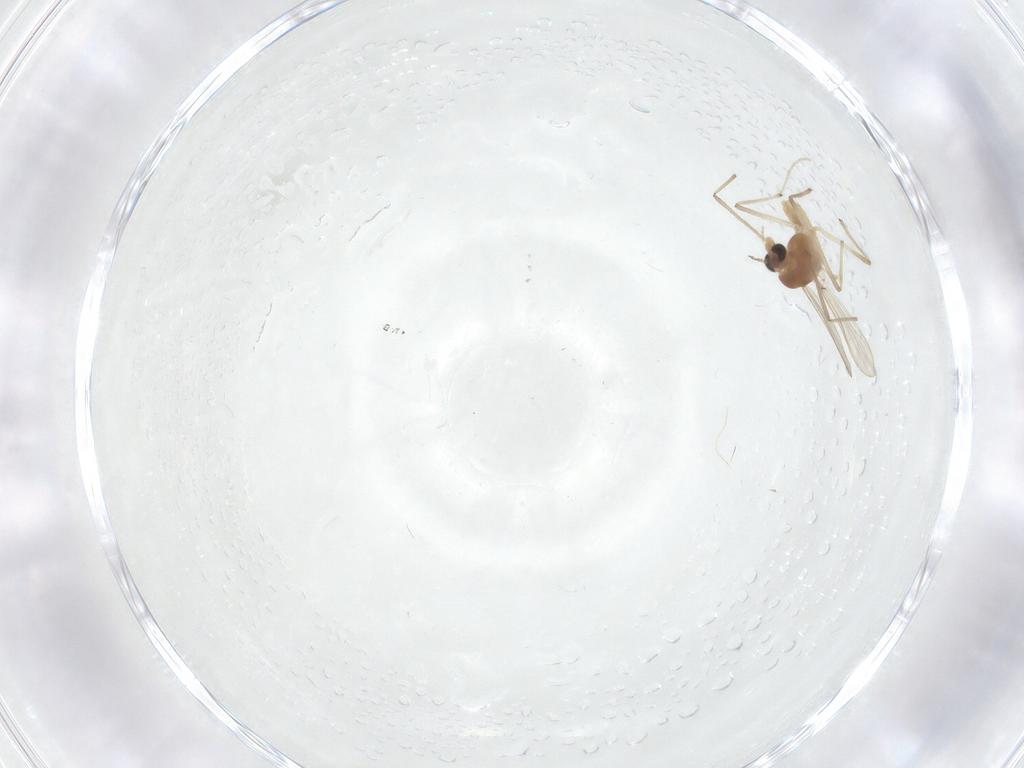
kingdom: Animalia
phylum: Arthropoda
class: Insecta
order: Diptera
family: Chironomidae
